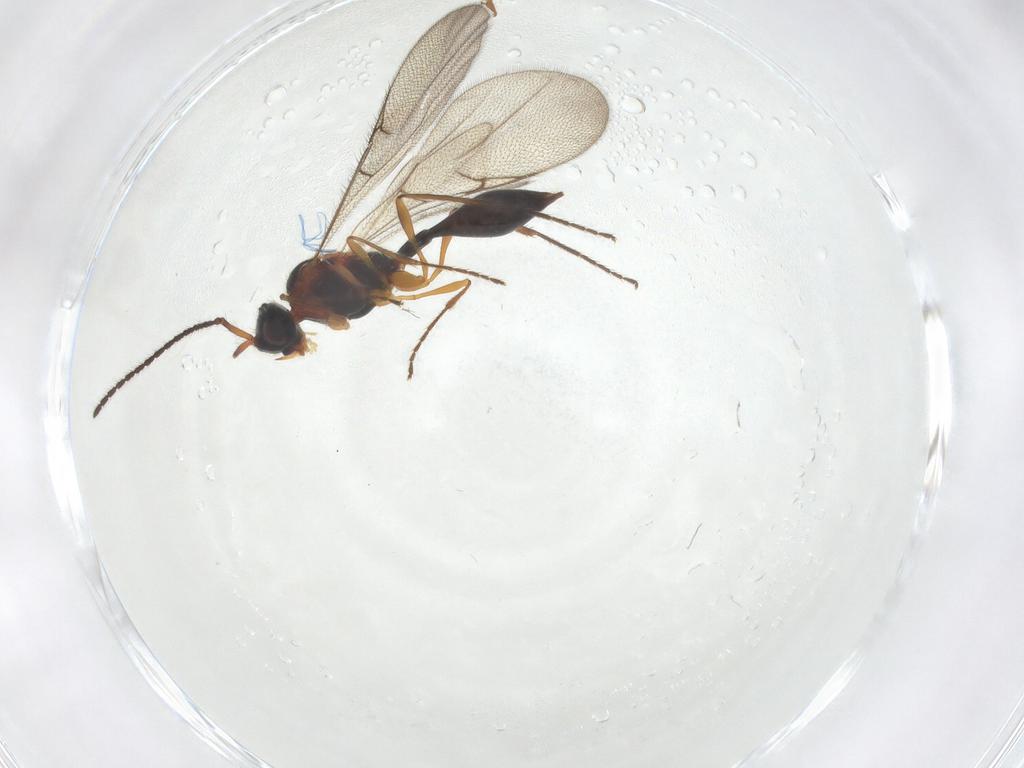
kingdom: Animalia
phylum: Arthropoda
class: Insecta
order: Hymenoptera
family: Diapriidae
